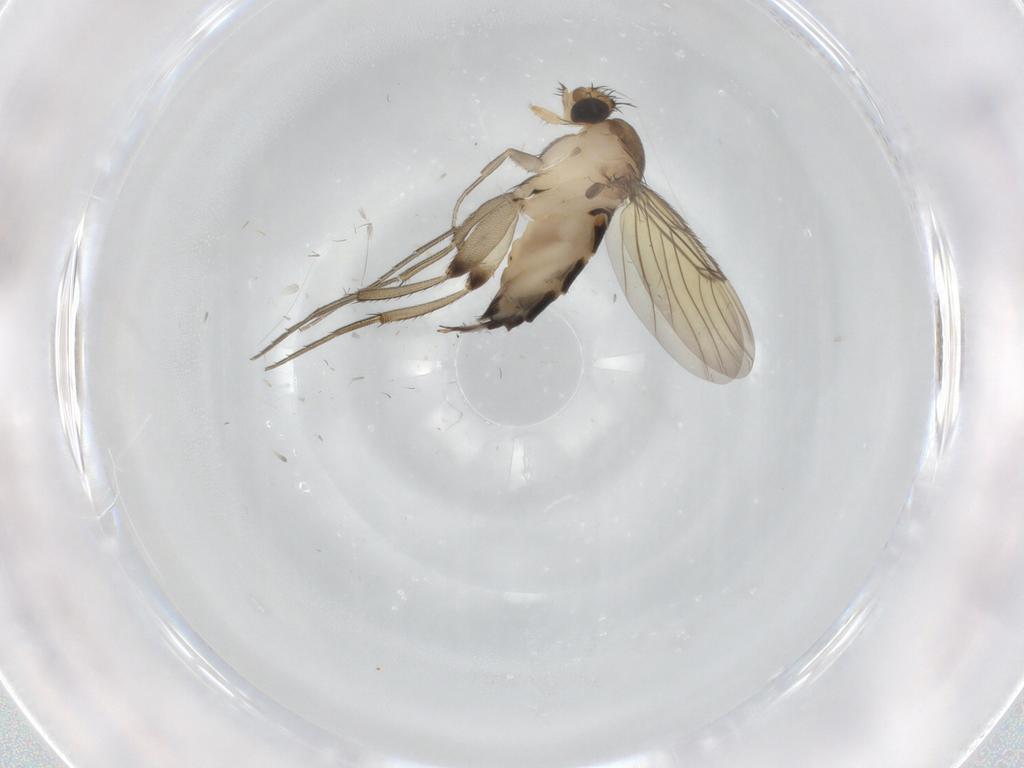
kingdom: Animalia
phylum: Arthropoda
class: Insecta
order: Diptera
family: Phoridae
